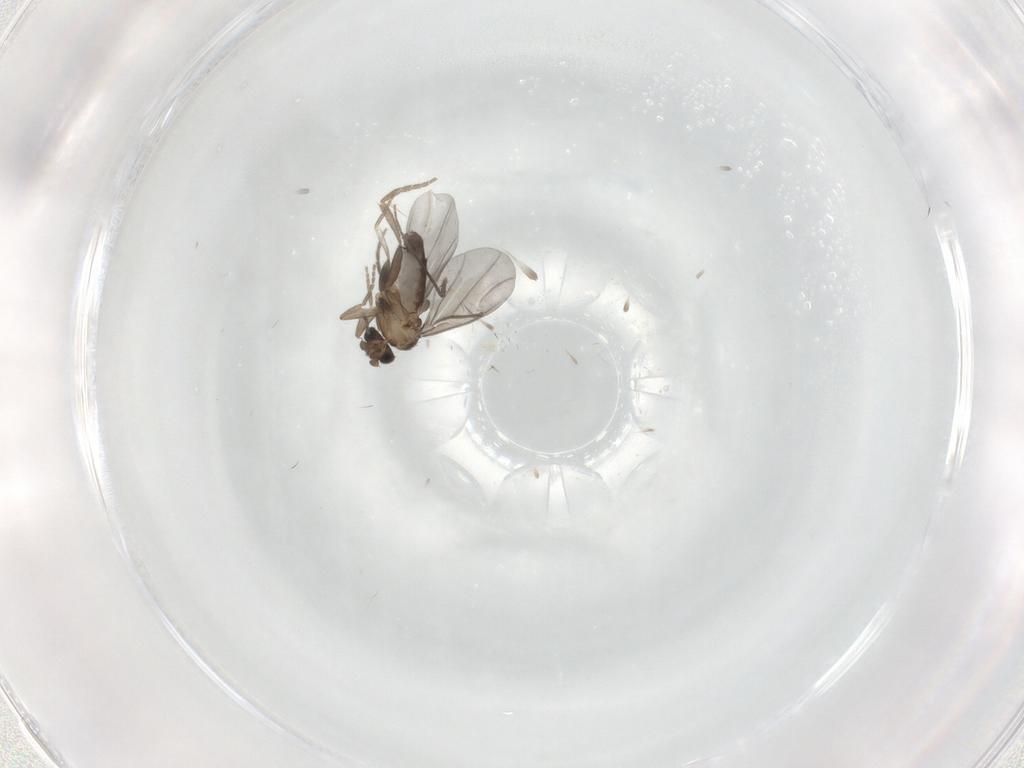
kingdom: Animalia
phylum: Arthropoda
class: Insecta
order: Diptera
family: Phoridae
